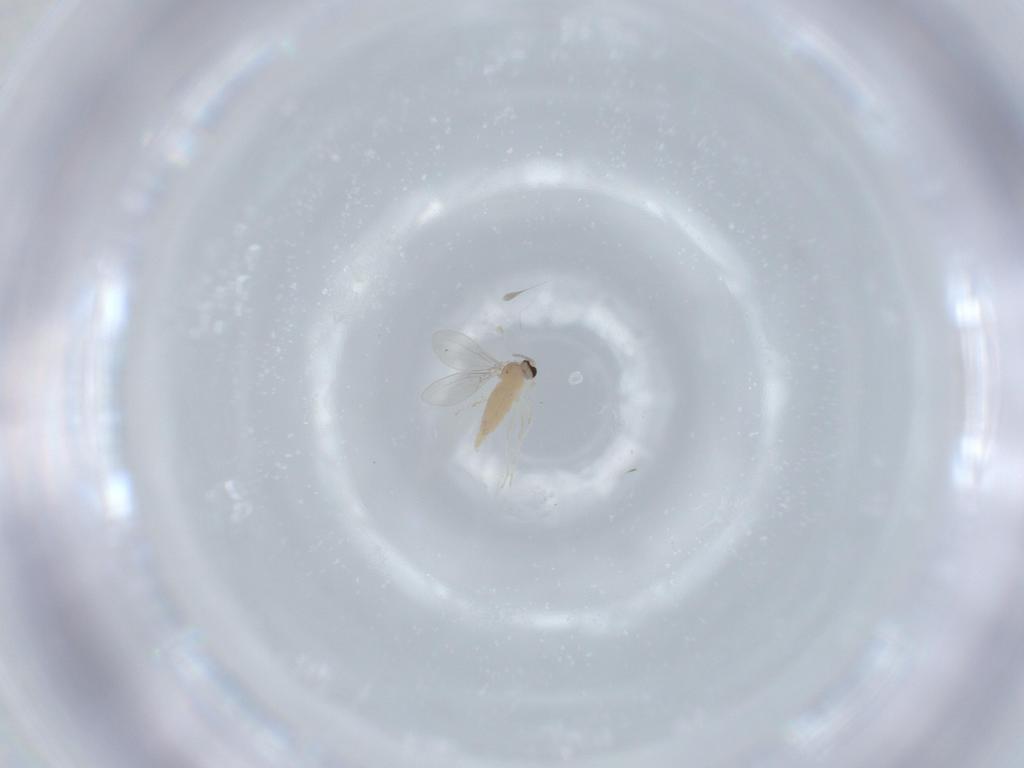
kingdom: Animalia
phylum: Arthropoda
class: Insecta
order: Diptera
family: Cecidomyiidae
